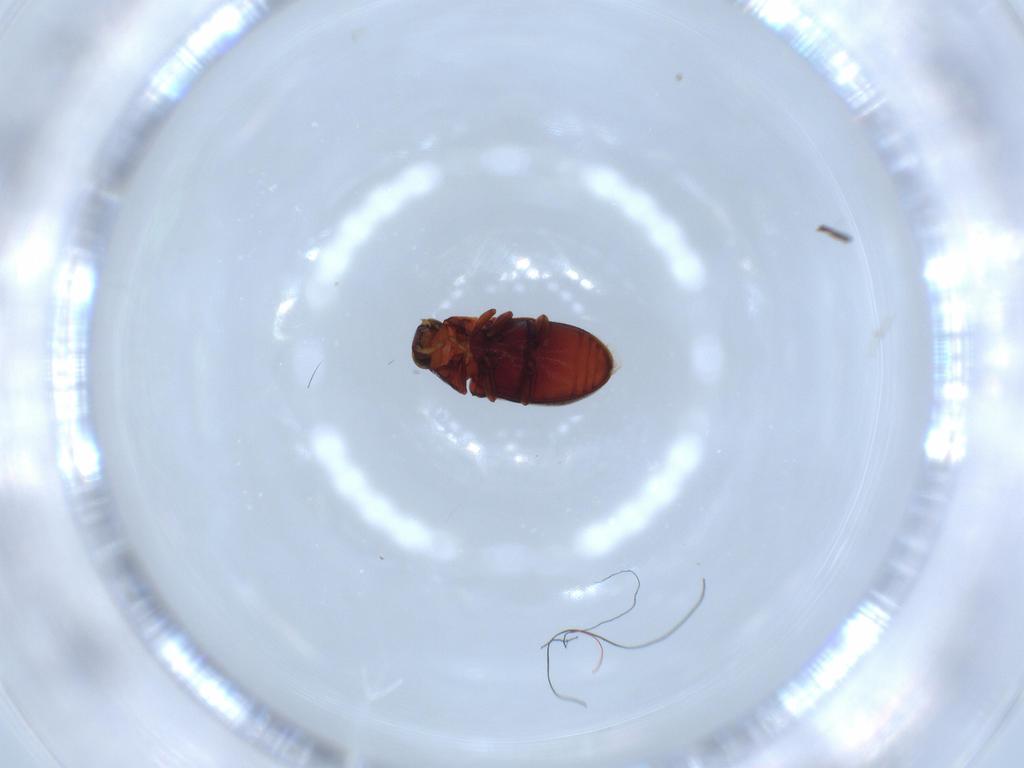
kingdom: Animalia
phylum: Arthropoda
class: Insecta
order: Coleoptera
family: Ptinidae
